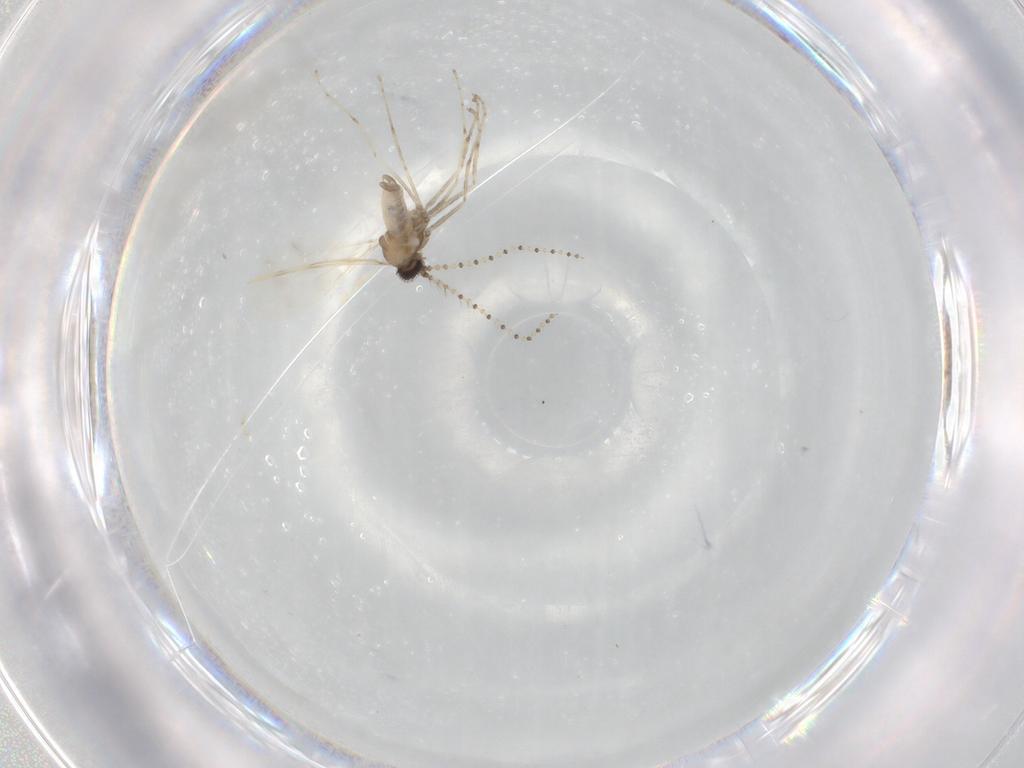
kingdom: Animalia
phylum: Arthropoda
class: Insecta
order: Diptera
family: Cecidomyiidae
